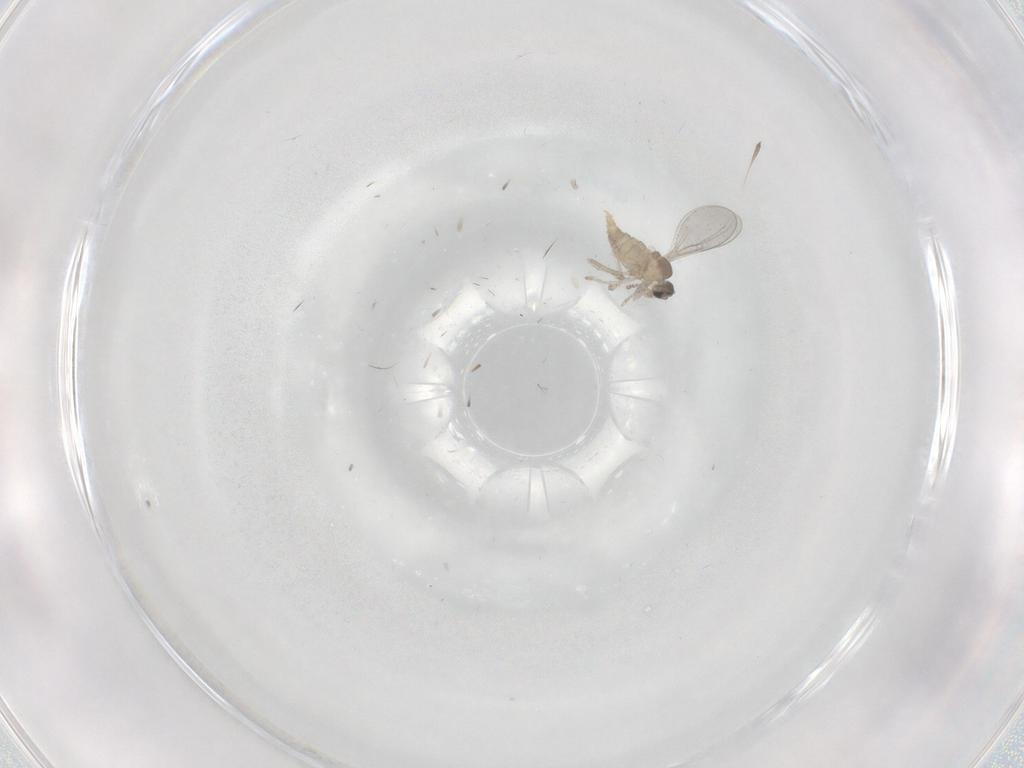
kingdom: Animalia
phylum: Arthropoda
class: Insecta
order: Diptera
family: Cecidomyiidae
